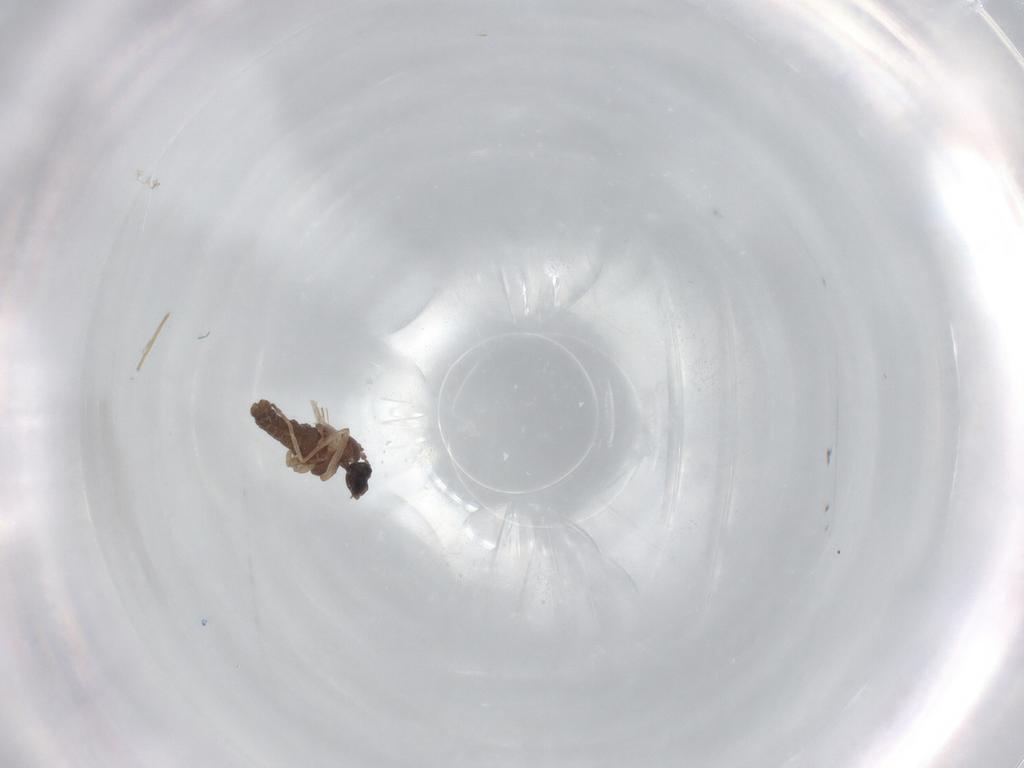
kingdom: Animalia
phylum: Arthropoda
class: Insecta
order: Diptera
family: Cecidomyiidae
